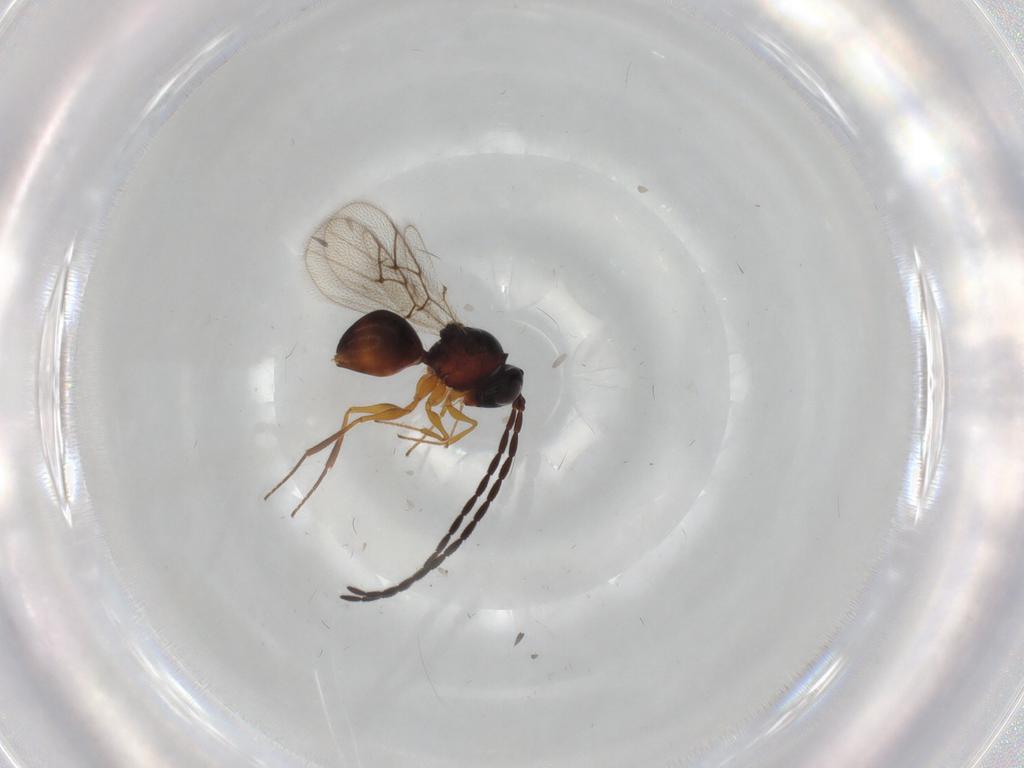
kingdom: Animalia
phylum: Arthropoda
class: Insecta
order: Hymenoptera
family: Figitidae
